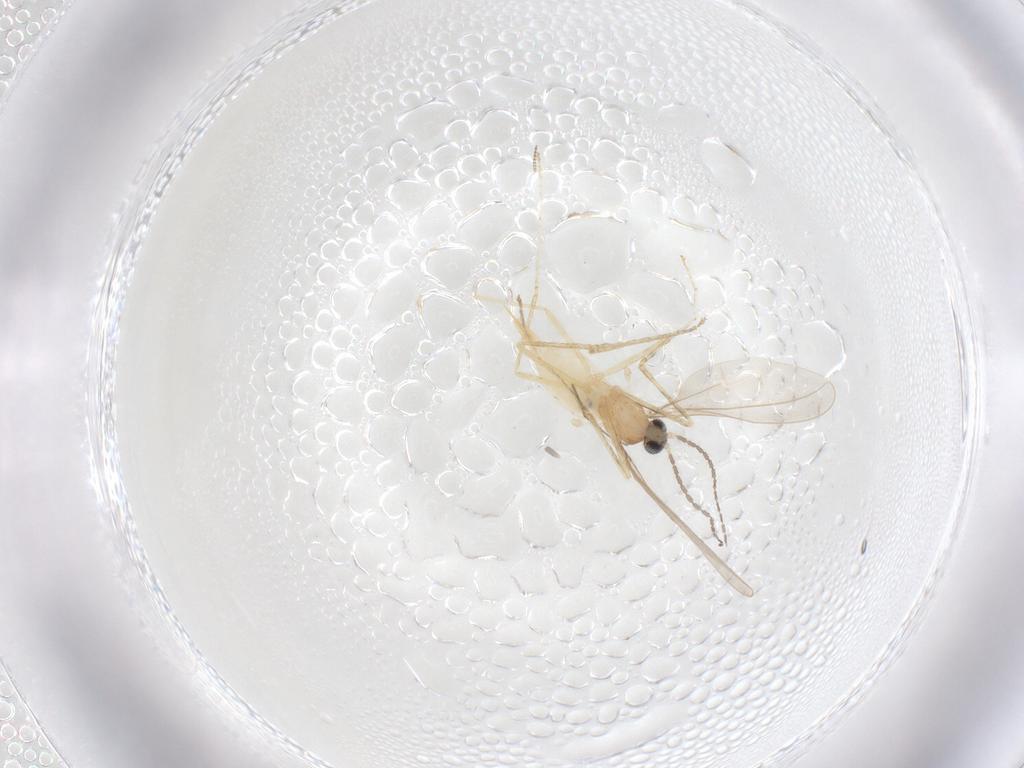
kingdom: Animalia
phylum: Arthropoda
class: Insecta
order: Diptera
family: Cecidomyiidae
